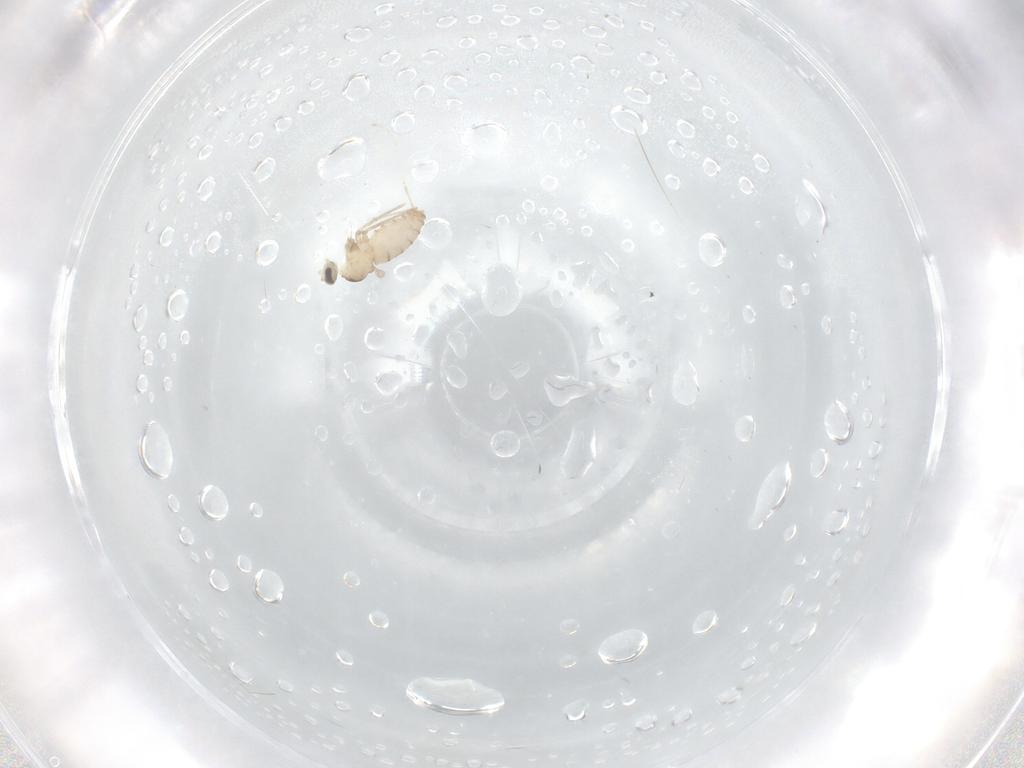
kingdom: Animalia
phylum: Arthropoda
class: Insecta
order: Diptera
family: Cecidomyiidae
